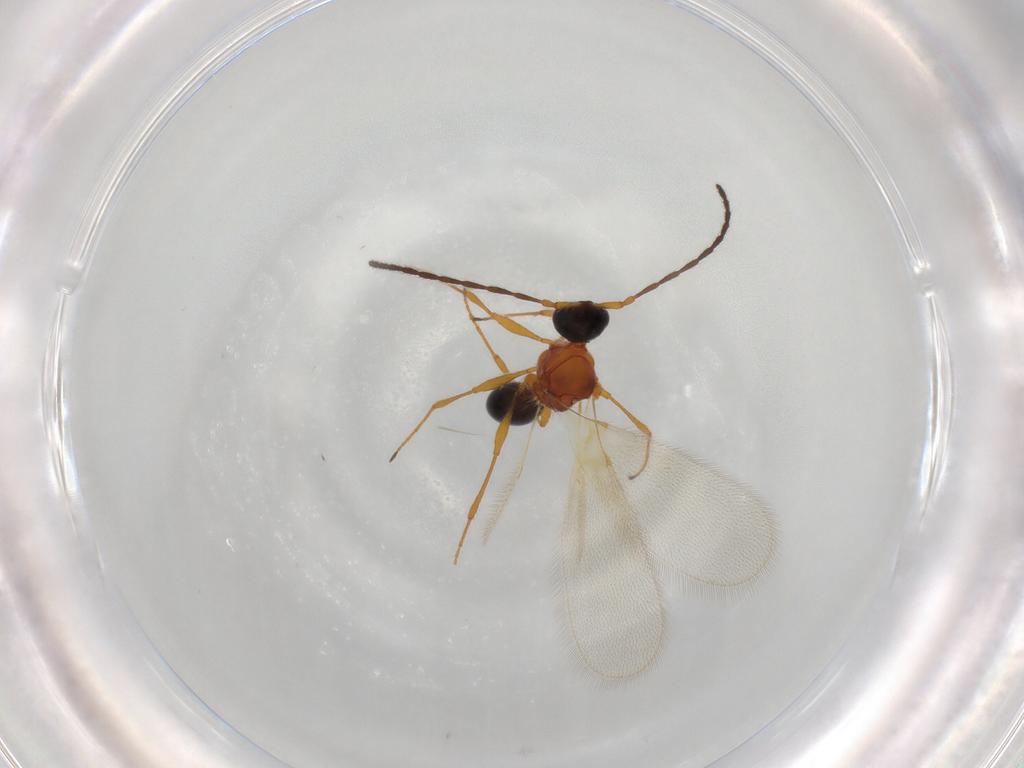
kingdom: Animalia
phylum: Arthropoda
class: Insecta
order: Hymenoptera
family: Diapriidae
